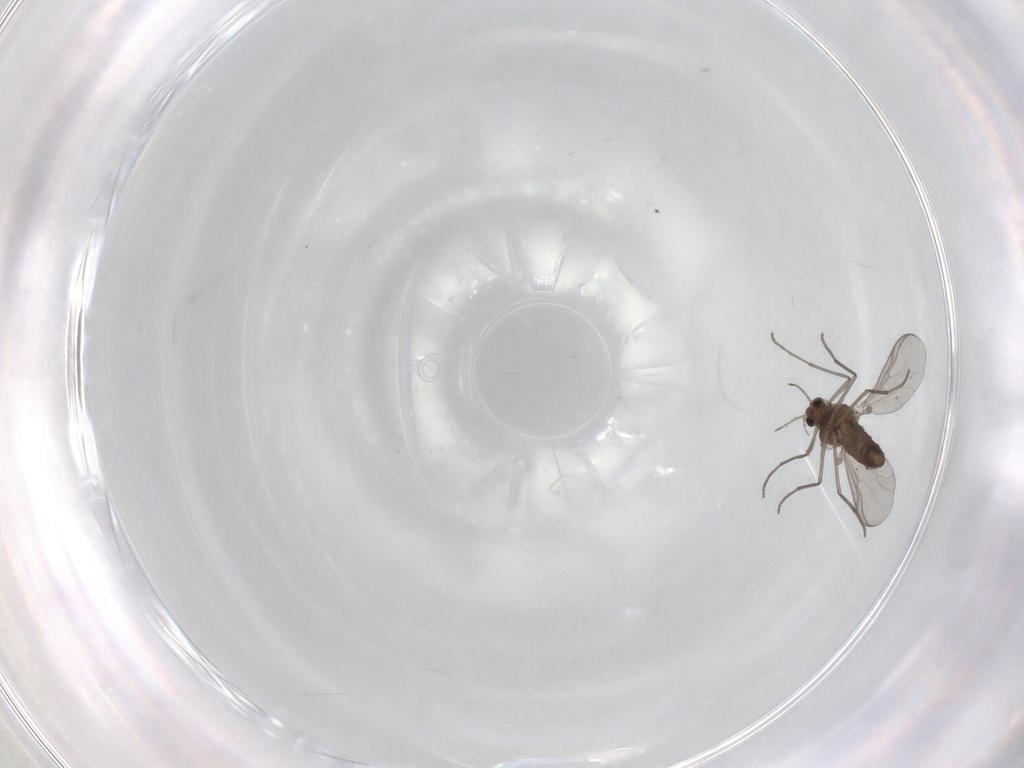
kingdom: Animalia
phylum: Arthropoda
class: Insecta
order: Diptera
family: Chironomidae
